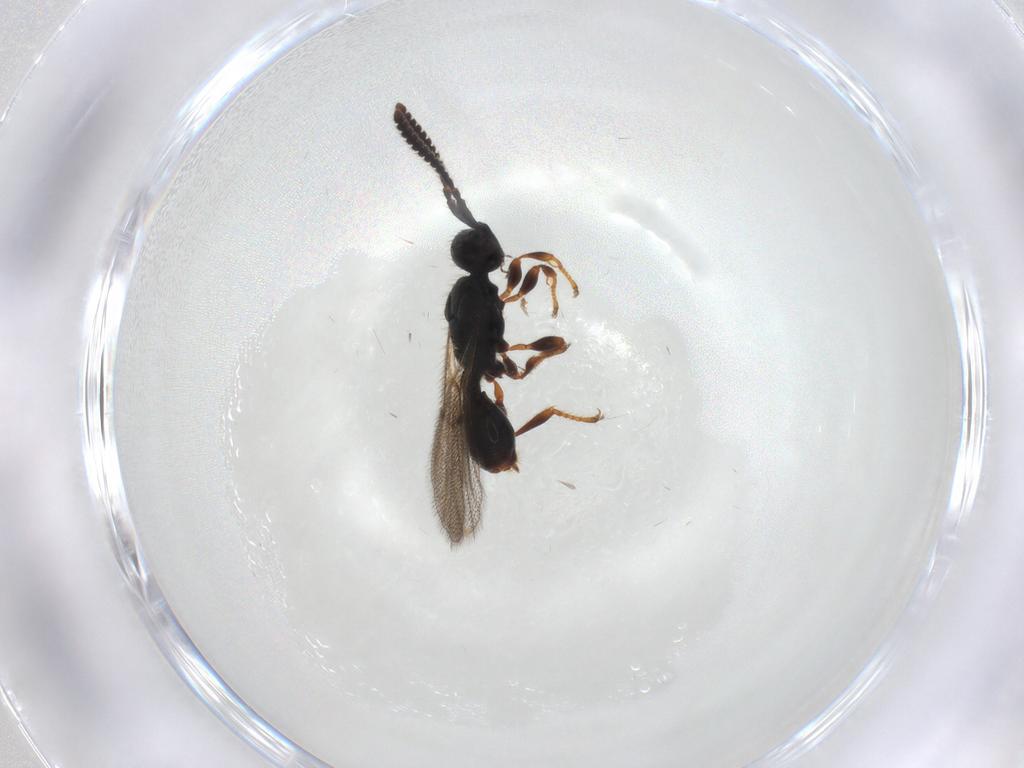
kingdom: Animalia
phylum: Arthropoda
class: Insecta
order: Hymenoptera
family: Diapriidae
